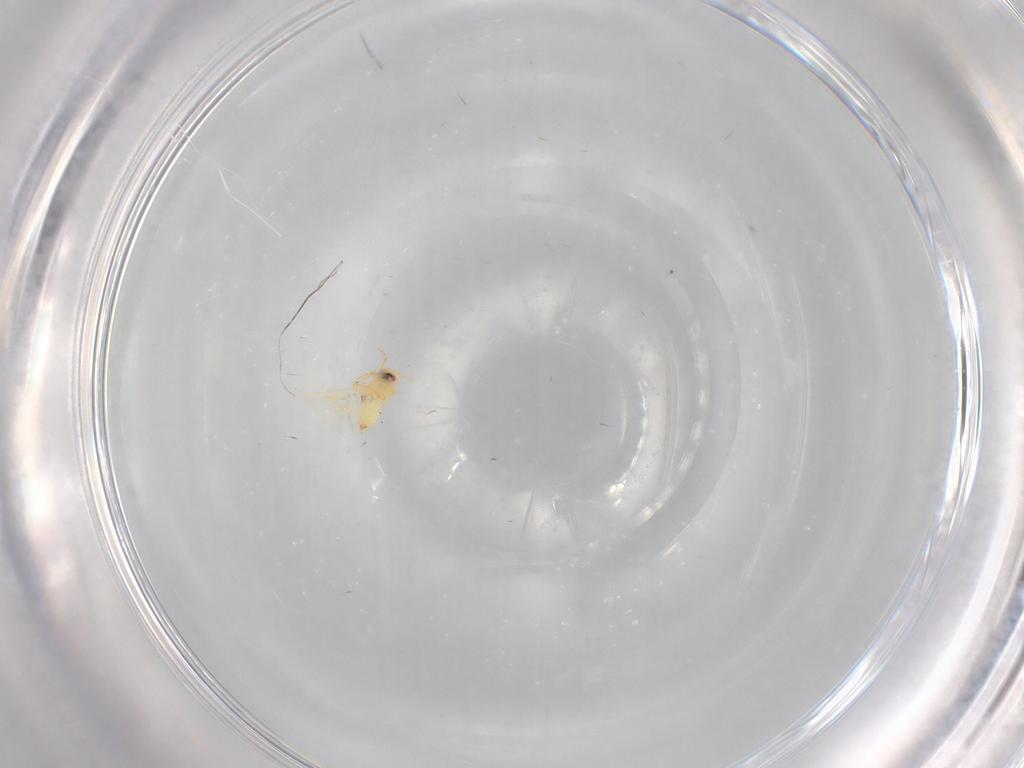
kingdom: Animalia
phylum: Arthropoda
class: Insecta
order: Hemiptera
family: Aleyrodidae
